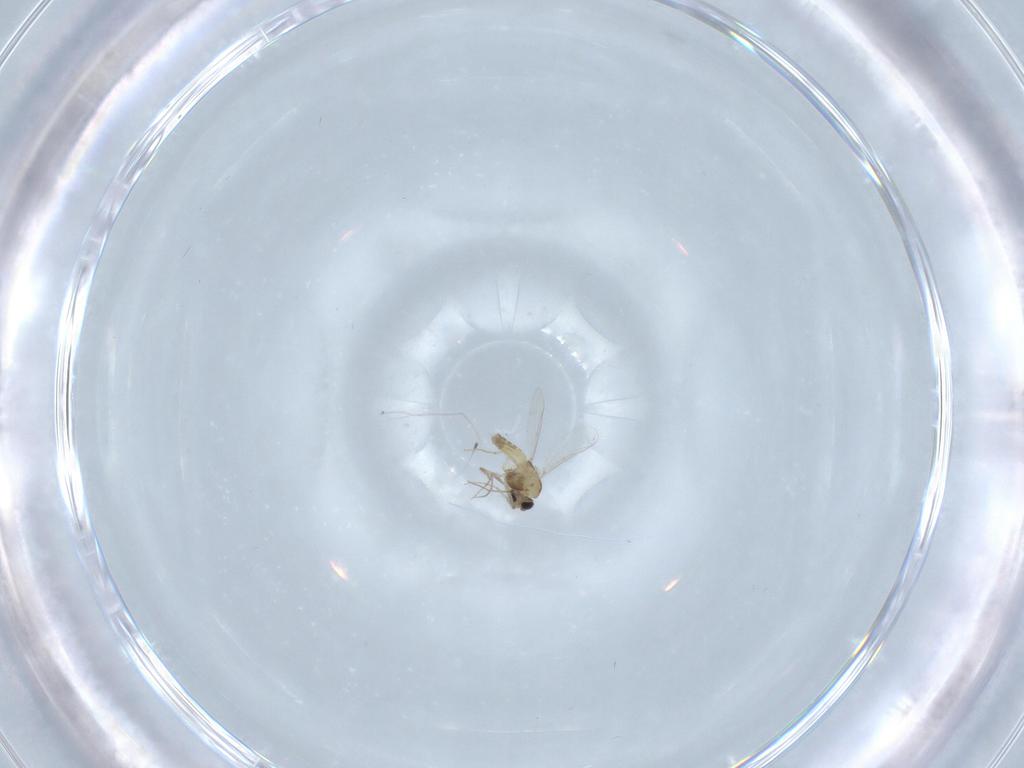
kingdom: Animalia
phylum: Arthropoda
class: Insecta
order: Diptera
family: Chironomidae
